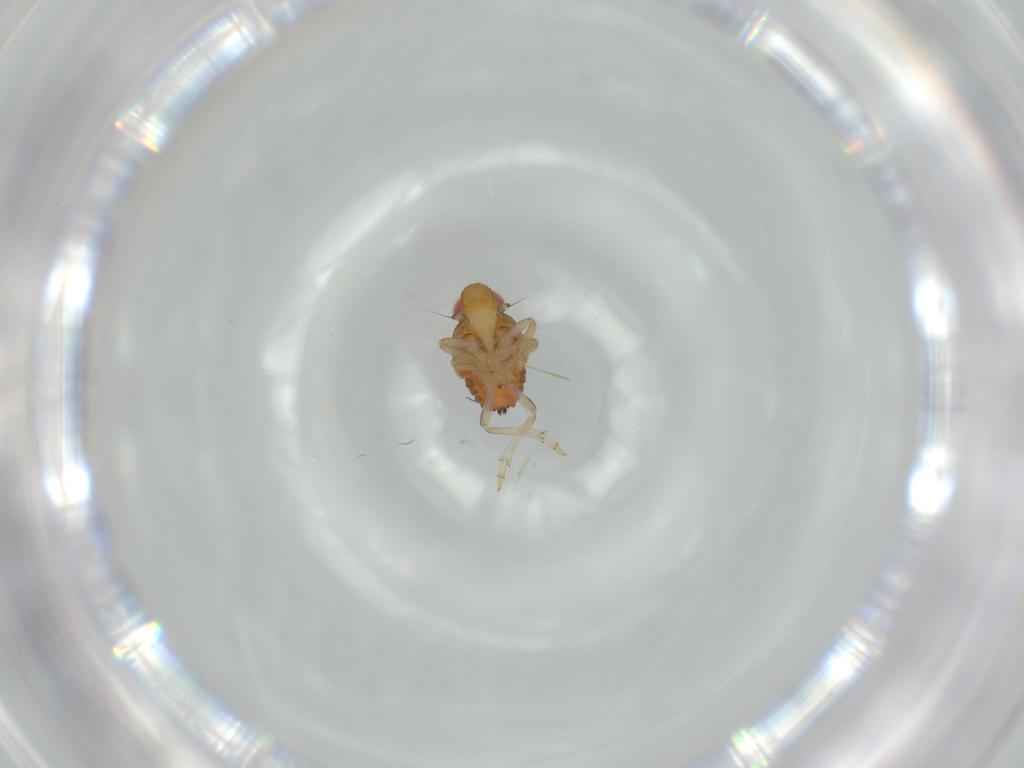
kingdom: Animalia
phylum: Arthropoda
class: Insecta
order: Hemiptera
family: Issidae
